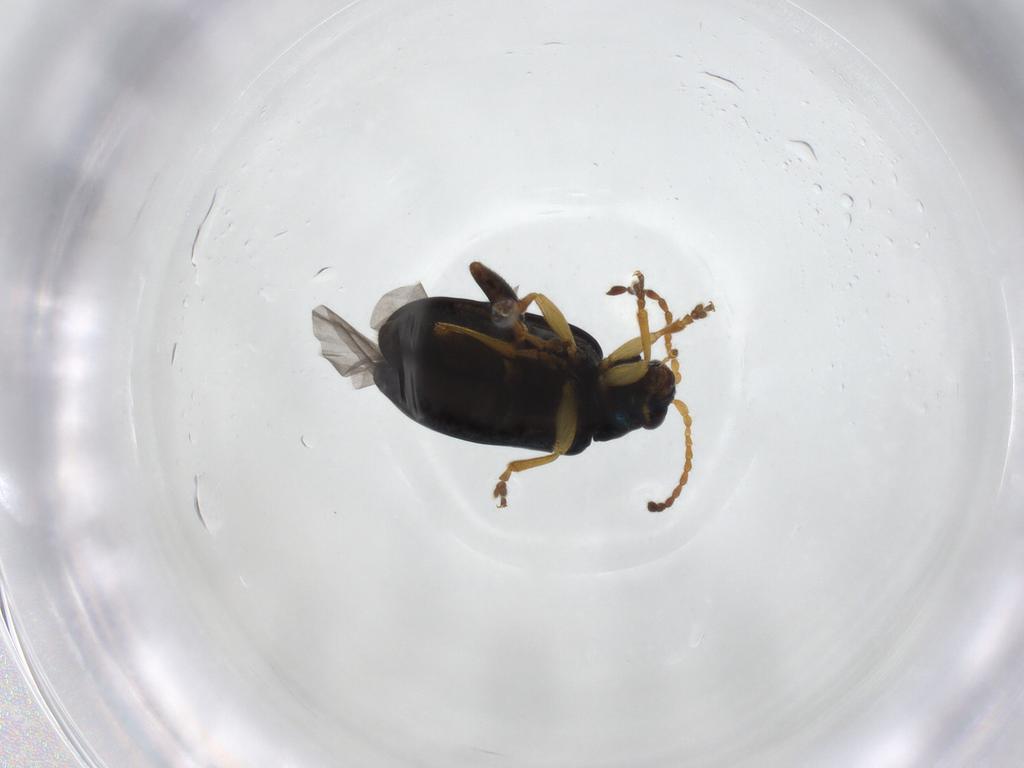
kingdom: Animalia
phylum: Arthropoda
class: Insecta
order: Coleoptera
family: Chrysomelidae
